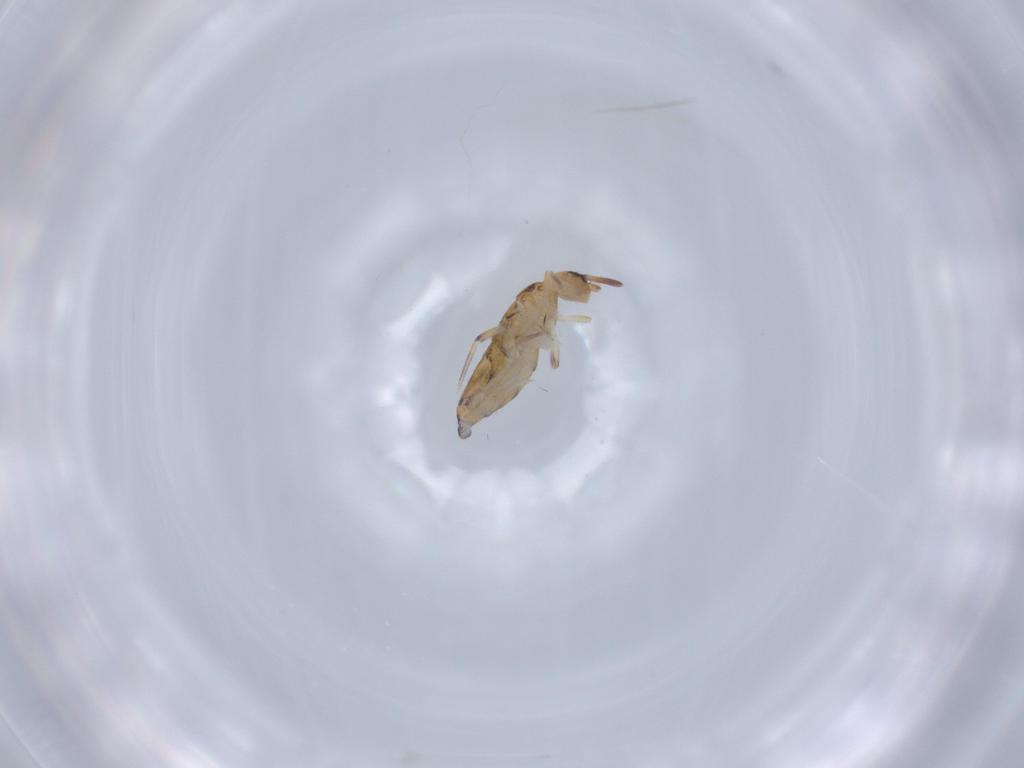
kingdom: Animalia
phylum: Arthropoda
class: Collembola
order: Entomobryomorpha
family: Entomobryidae
